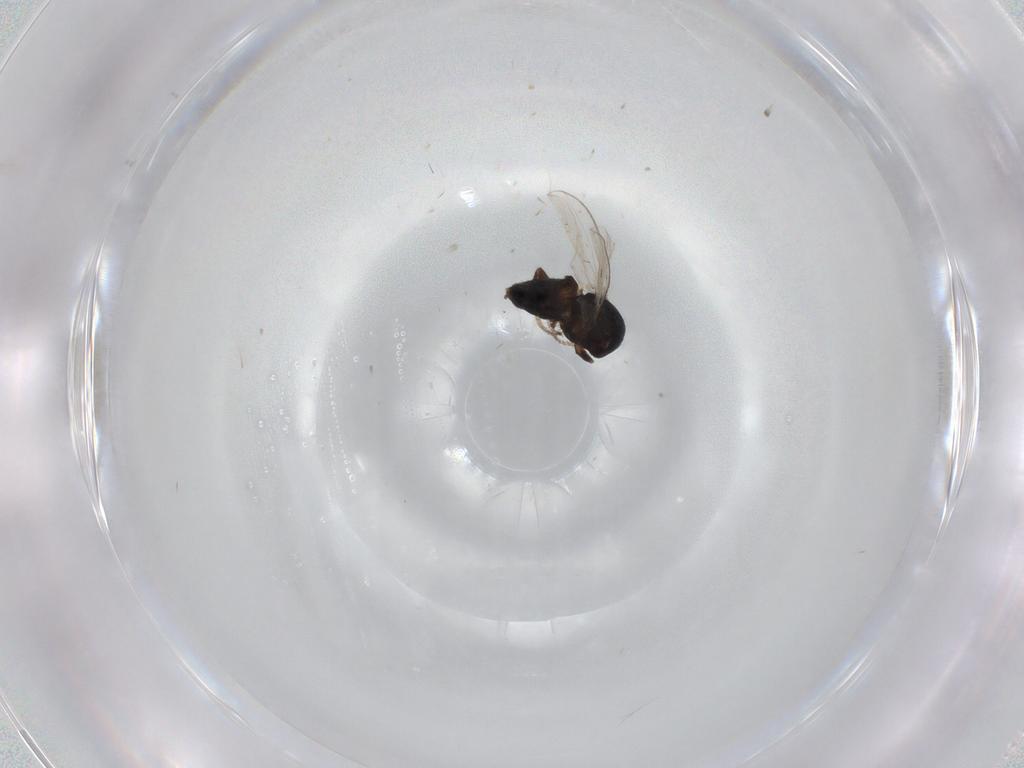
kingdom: Animalia
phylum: Arthropoda
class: Insecta
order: Diptera
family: Milichiidae
